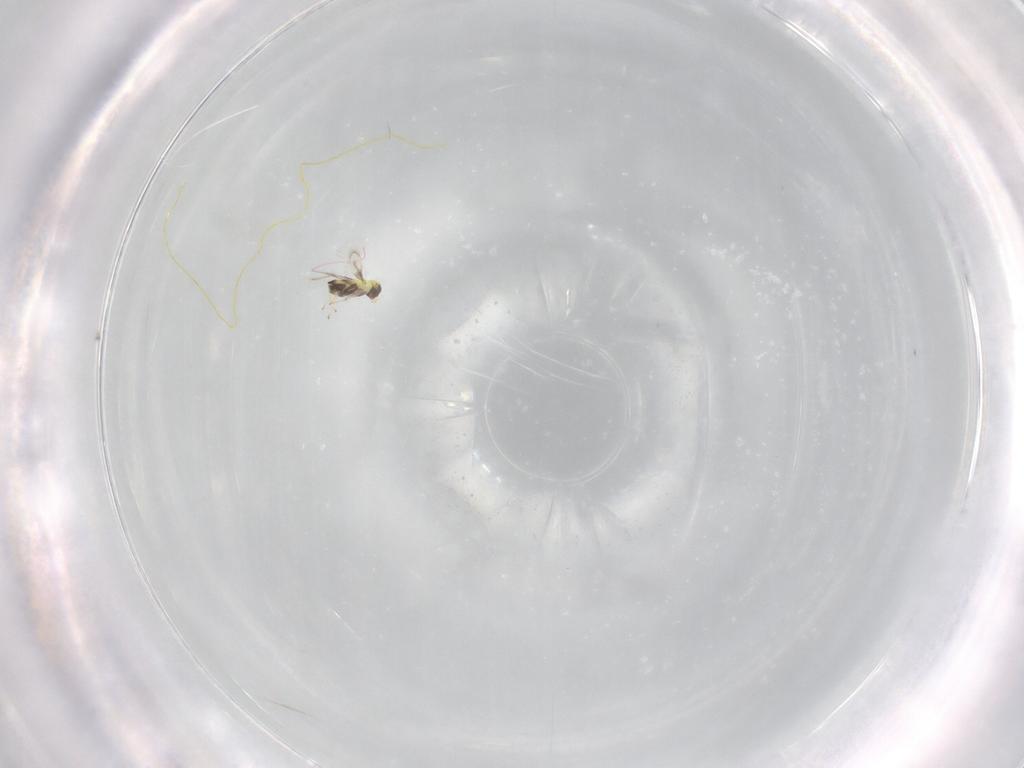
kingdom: Animalia
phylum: Arthropoda
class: Insecta
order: Hymenoptera
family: Trichogrammatidae
